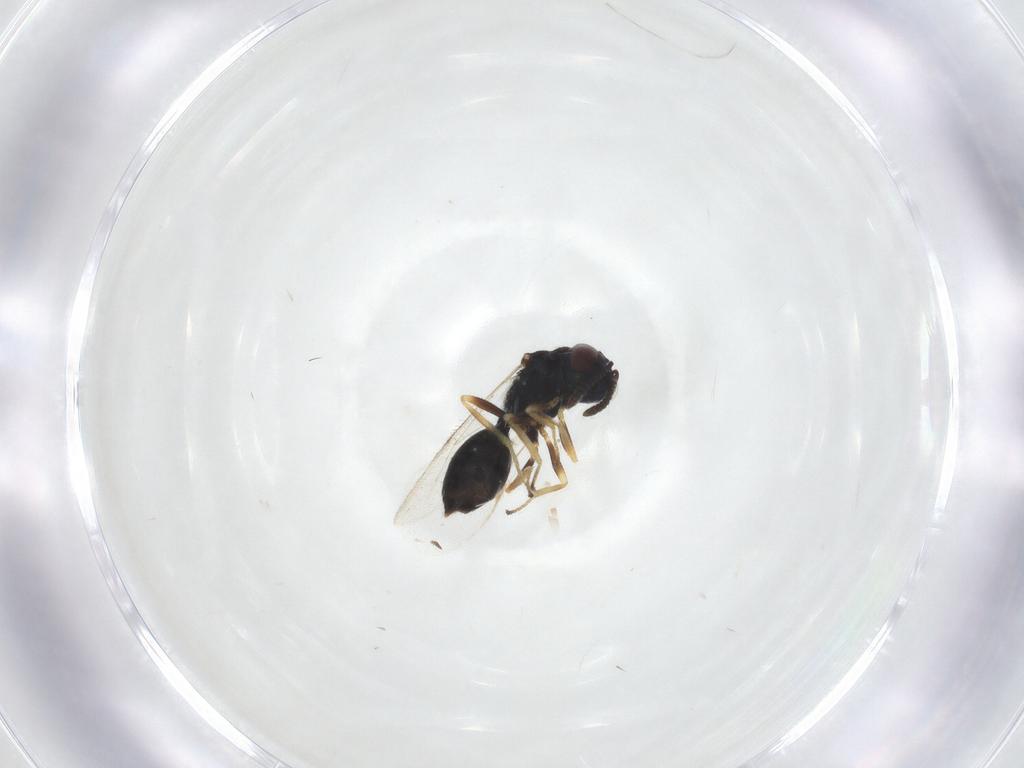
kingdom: Animalia
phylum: Arthropoda
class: Insecta
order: Hymenoptera
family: Chalcidoidea_incertae_sedis
